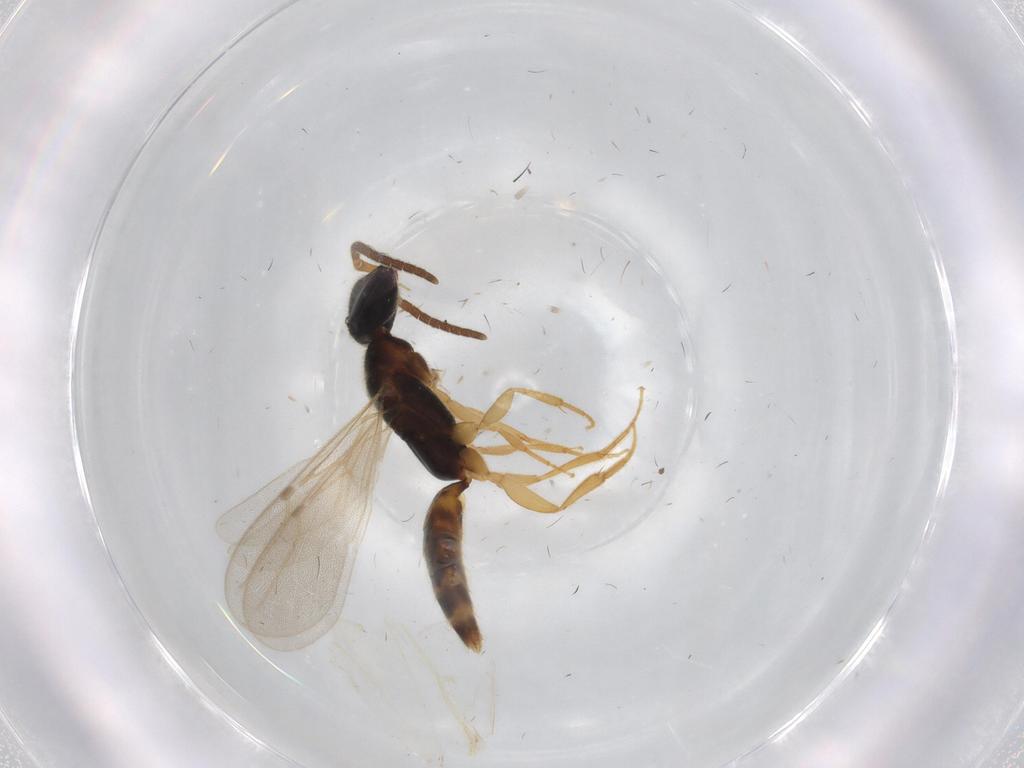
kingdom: Animalia
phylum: Arthropoda
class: Insecta
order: Hymenoptera
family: Bethylidae
